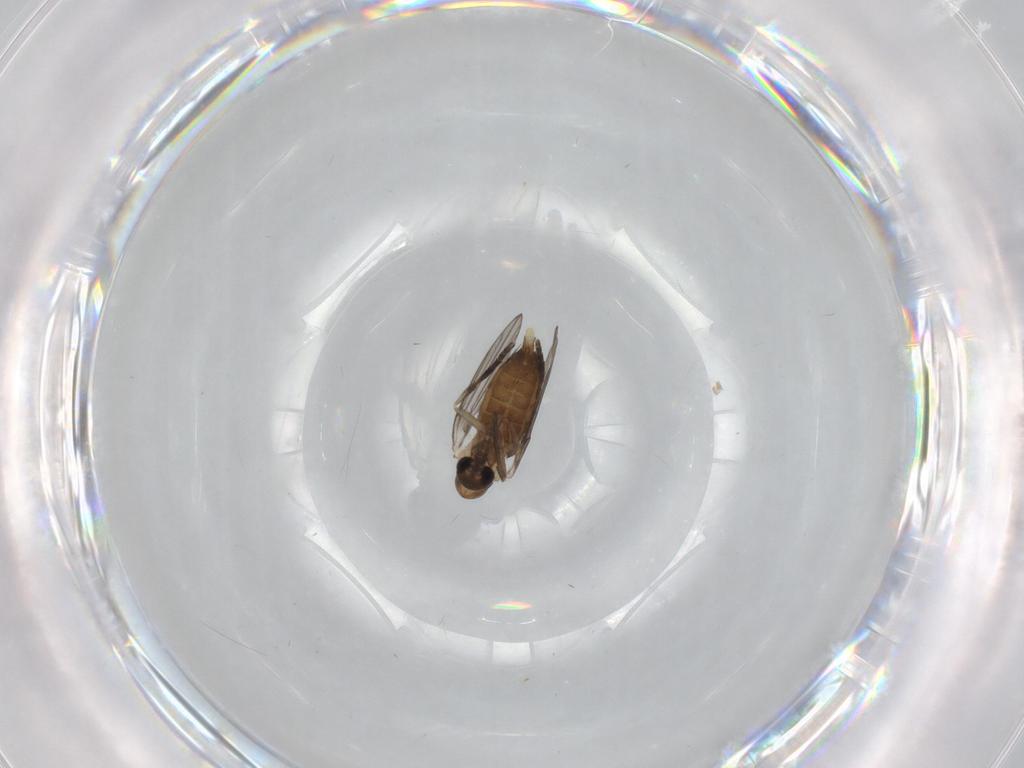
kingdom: Animalia
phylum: Arthropoda
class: Insecta
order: Diptera
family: Psychodidae
